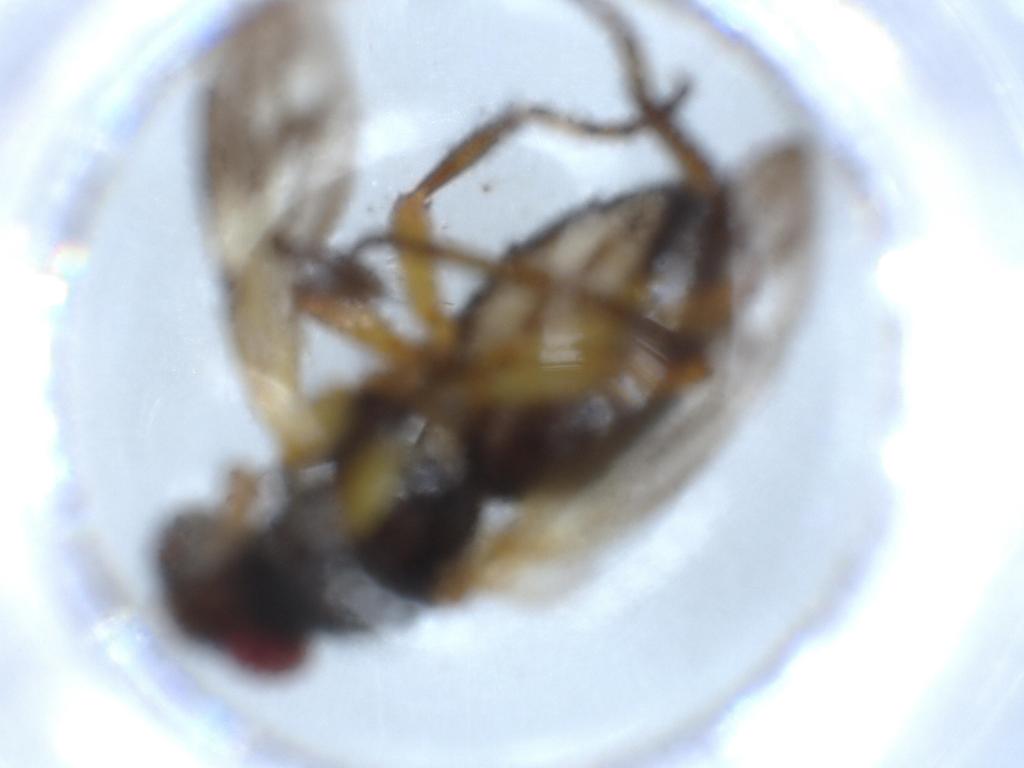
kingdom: Animalia
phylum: Arthropoda
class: Insecta
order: Diptera
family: Calliphoridae
